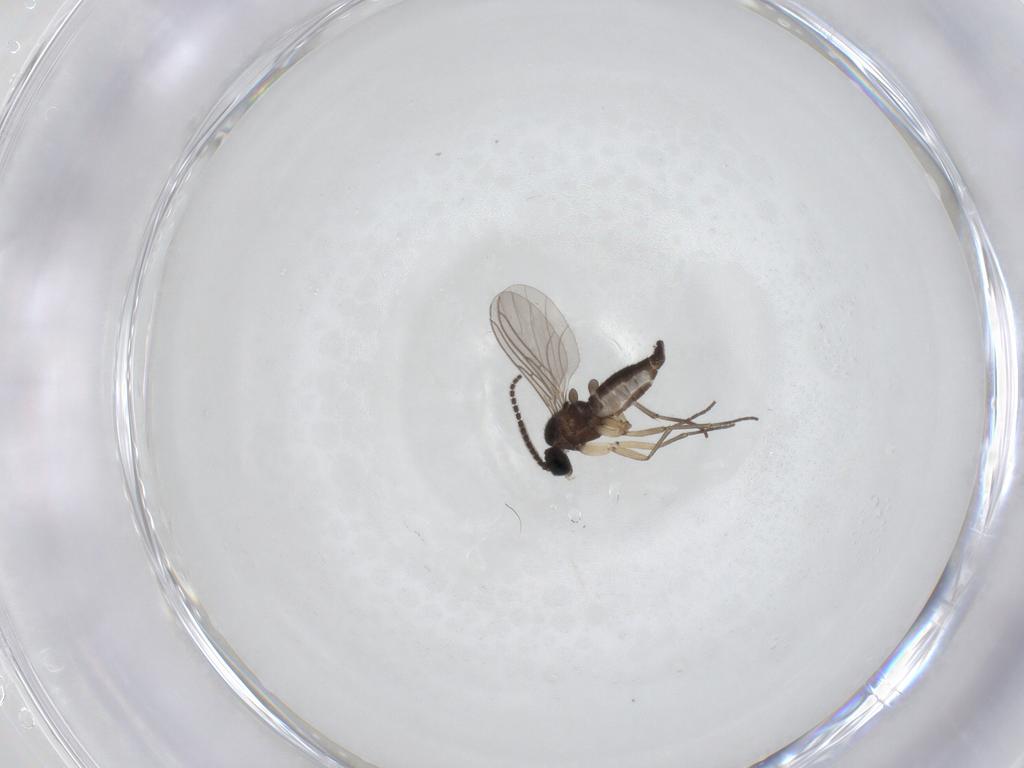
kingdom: Animalia
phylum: Arthropoda
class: Insecta
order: Diptera
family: Sciaridae
